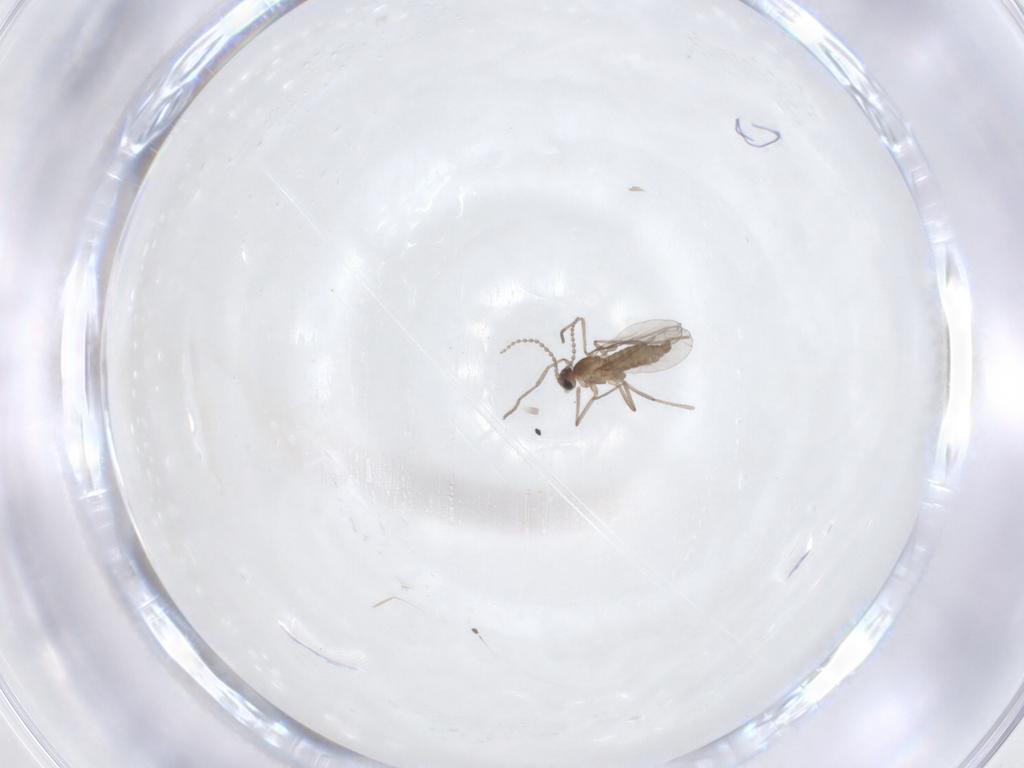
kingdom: Animalia
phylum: Arthropoda
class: Insecta
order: Diptera
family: Cecidomyiidae
